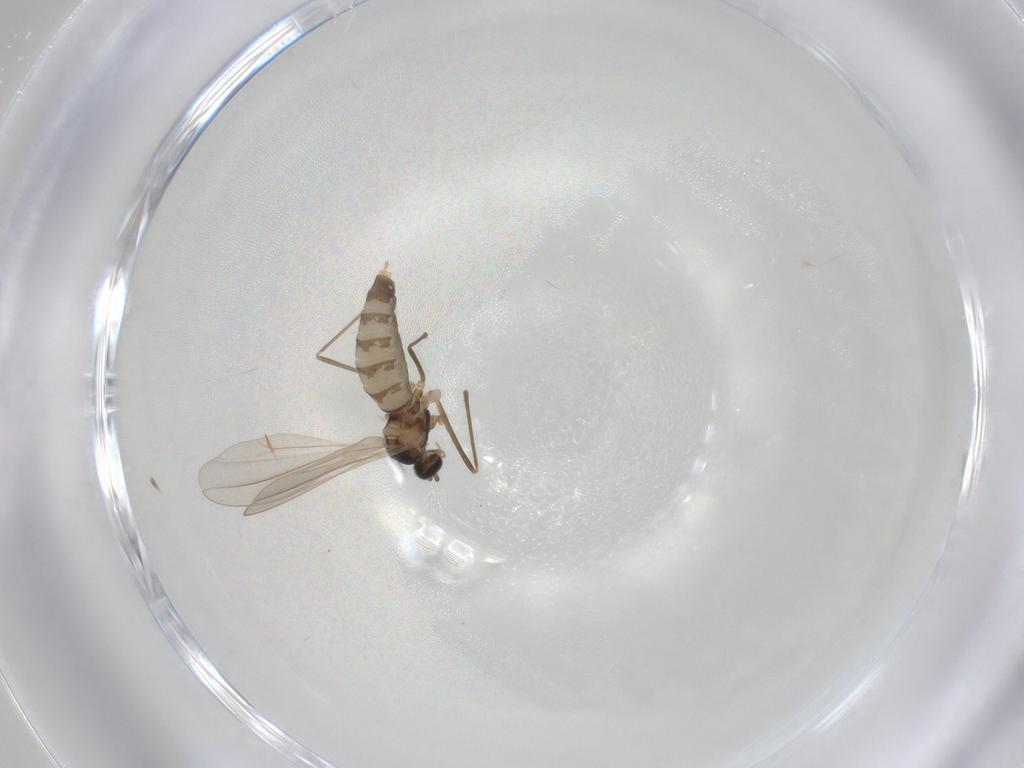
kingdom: Animalia
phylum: Arthropoda
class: Insecta
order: Diptera
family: Cecidomyiidae
